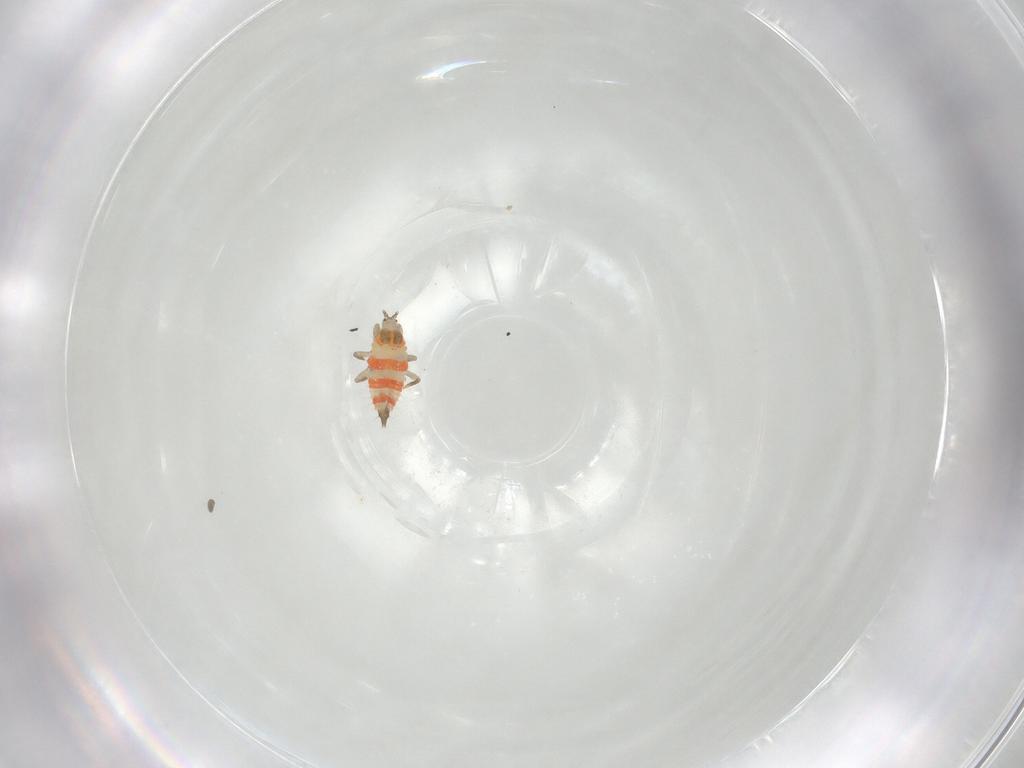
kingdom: Animalia
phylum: Arthropoda
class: Insecta
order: Thysanoptera
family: Phlaeothripidae
